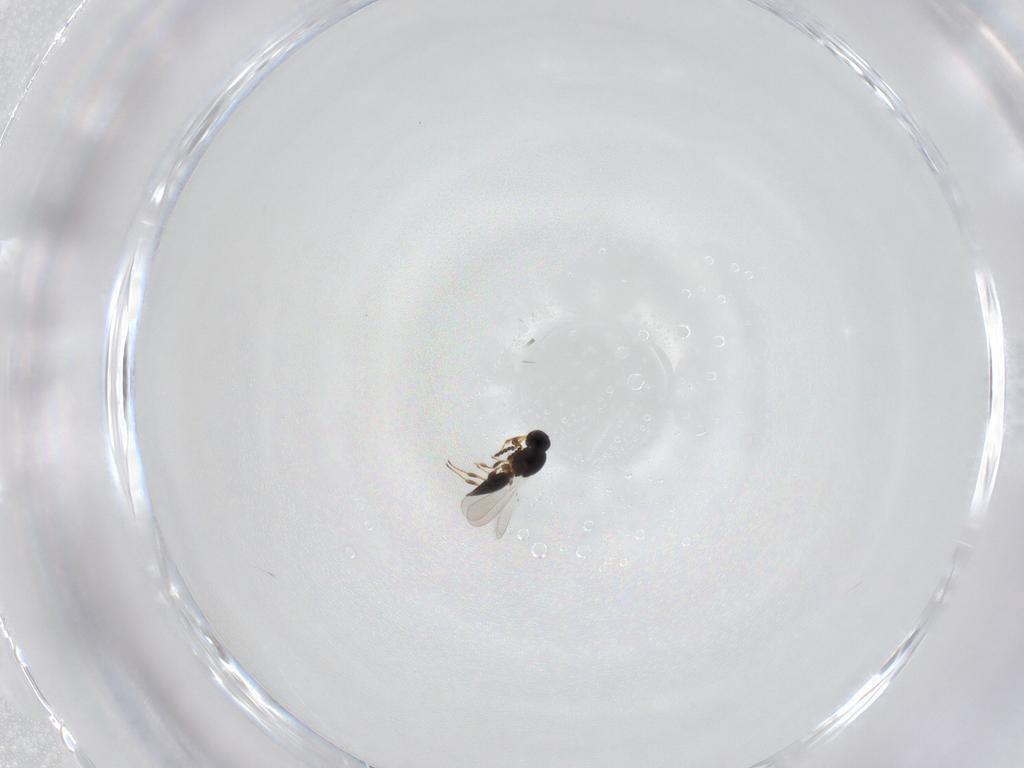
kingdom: Animalia
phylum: Arthropoda
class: Insecta
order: Hymenoptera
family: Platygastridae
